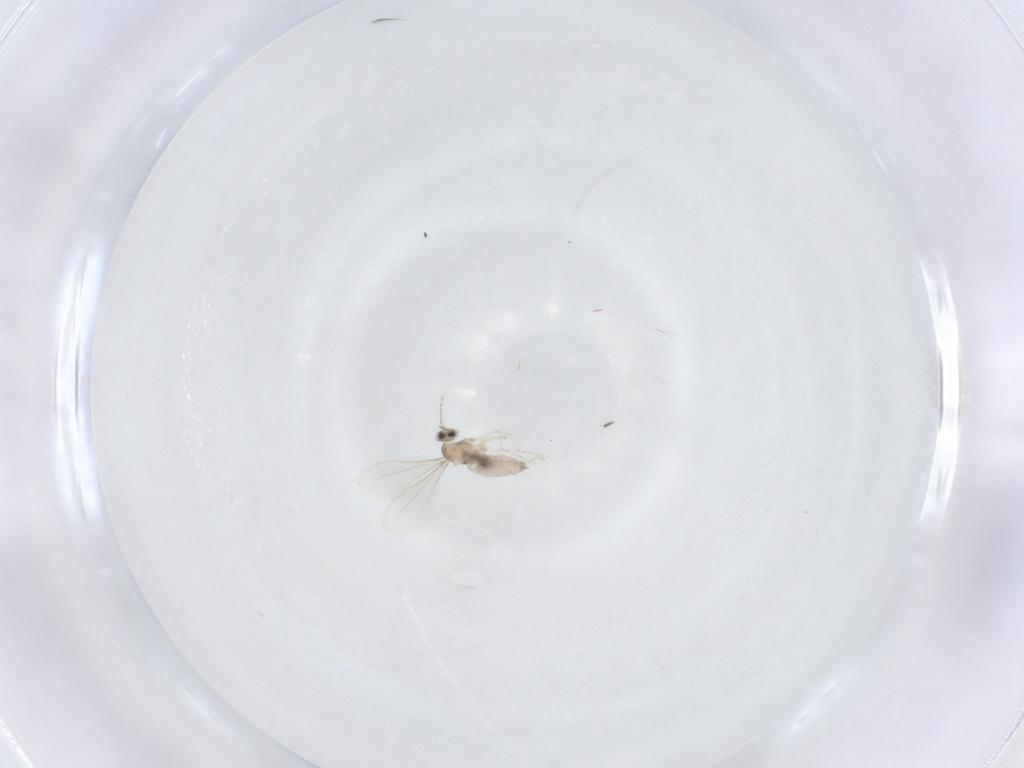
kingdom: Animalia
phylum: Arthropoda
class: Insecta
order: Diptera
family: Cecidomyiidae
